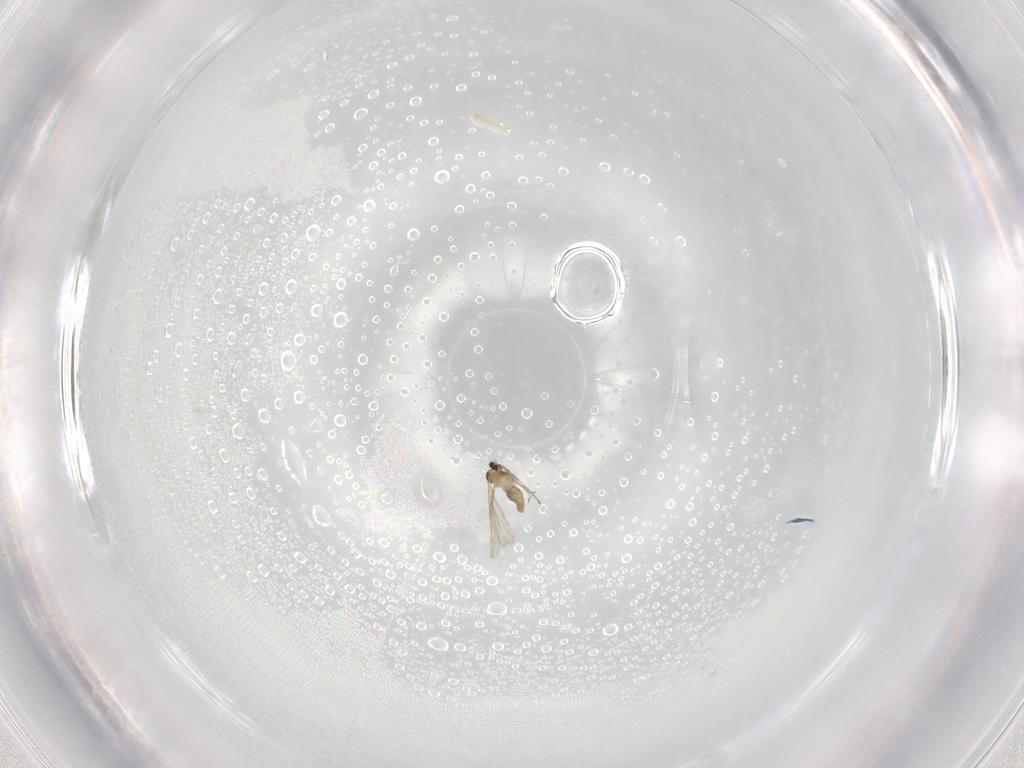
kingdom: Animalia
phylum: Arthropoda
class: Insecta
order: Diptera
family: Cecidomyiidae
